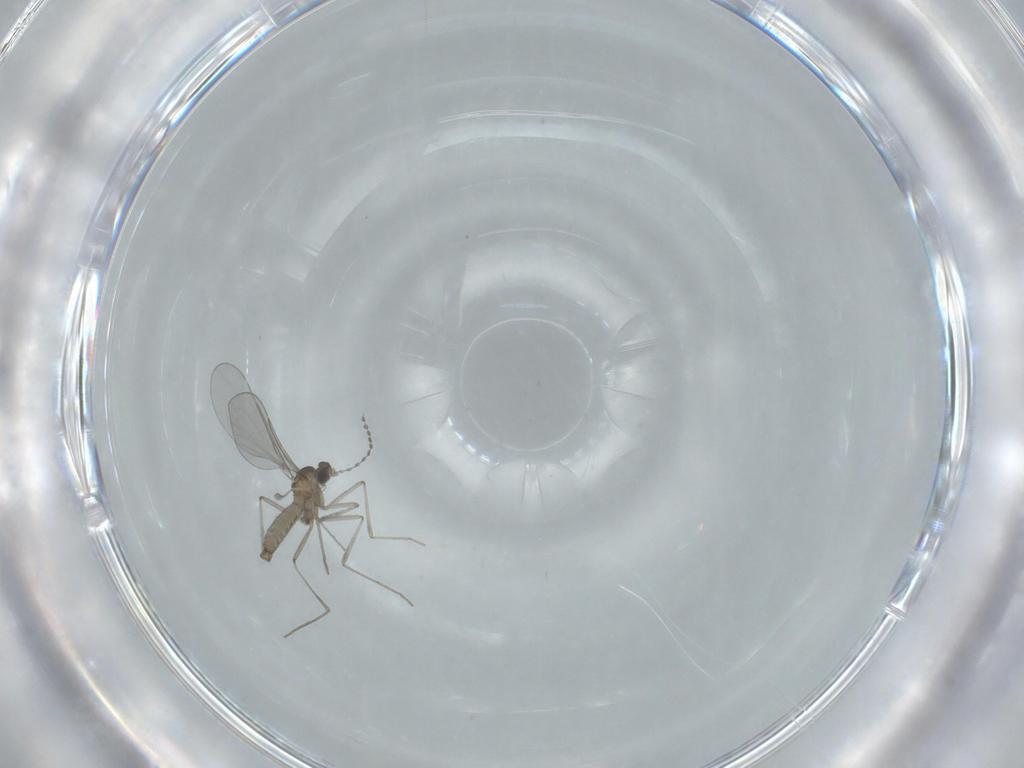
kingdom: Animalia
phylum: Arthropoda
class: Insecta
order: Diptera
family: Cecidomyiidae
